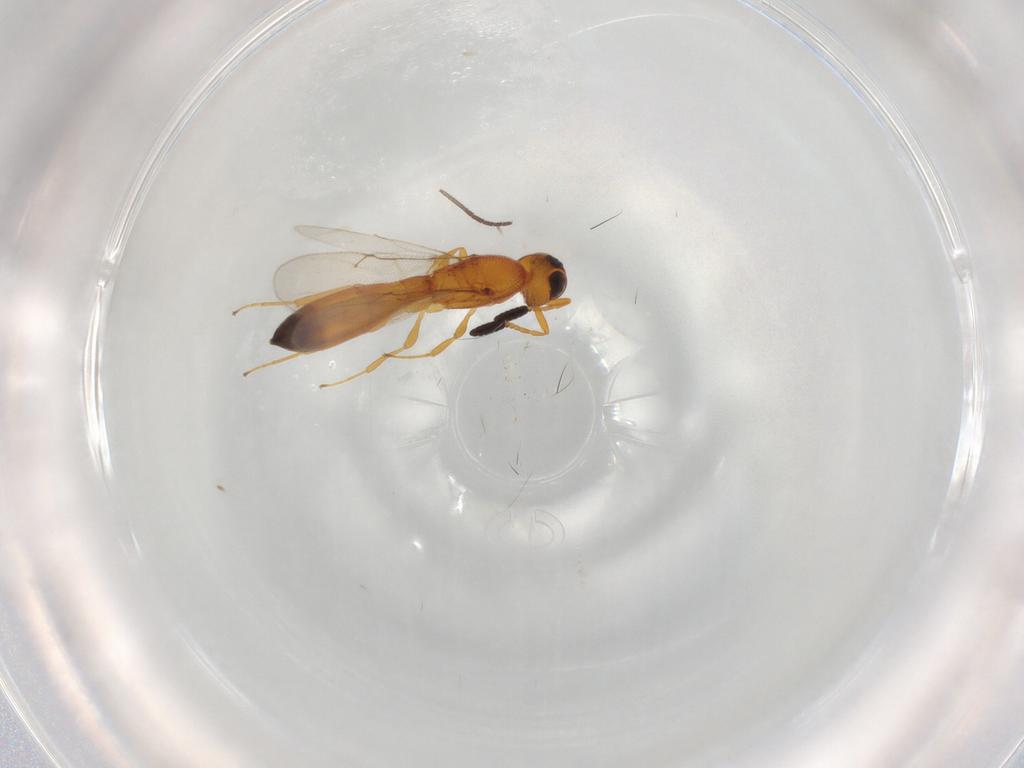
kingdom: Animalia
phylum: Arthropoda
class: Insecta
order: Hymenoptera
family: Scelionidae
